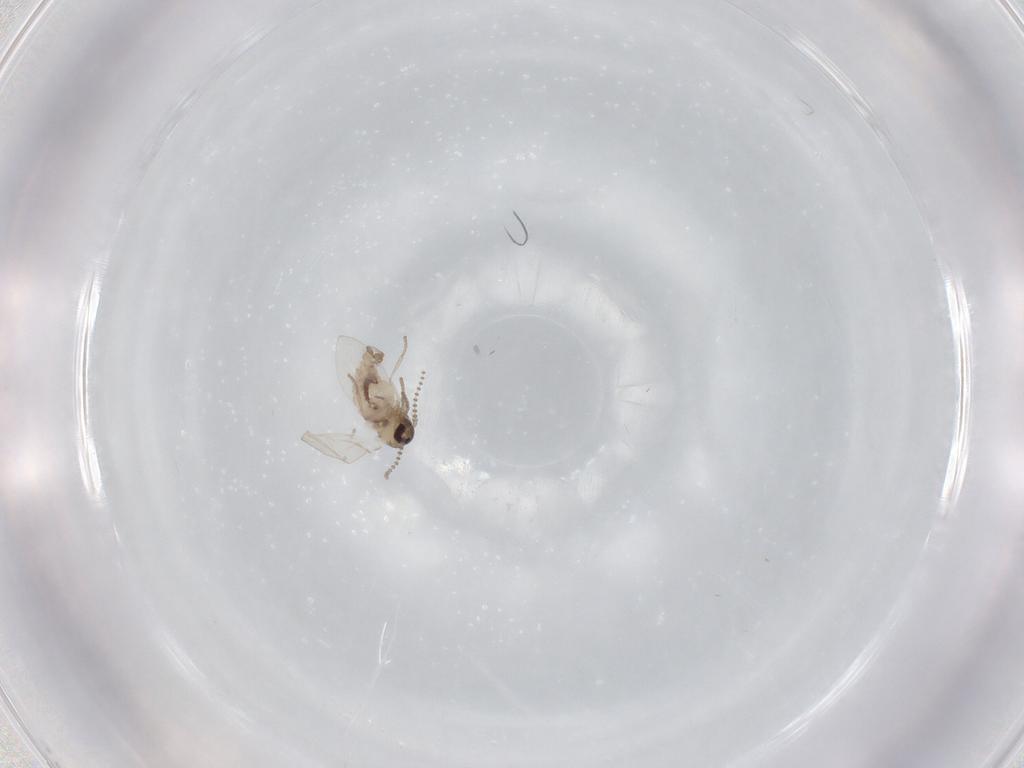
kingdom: Animalia
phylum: Arthropoda
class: Insecta
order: Diptera
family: Psychodidae
